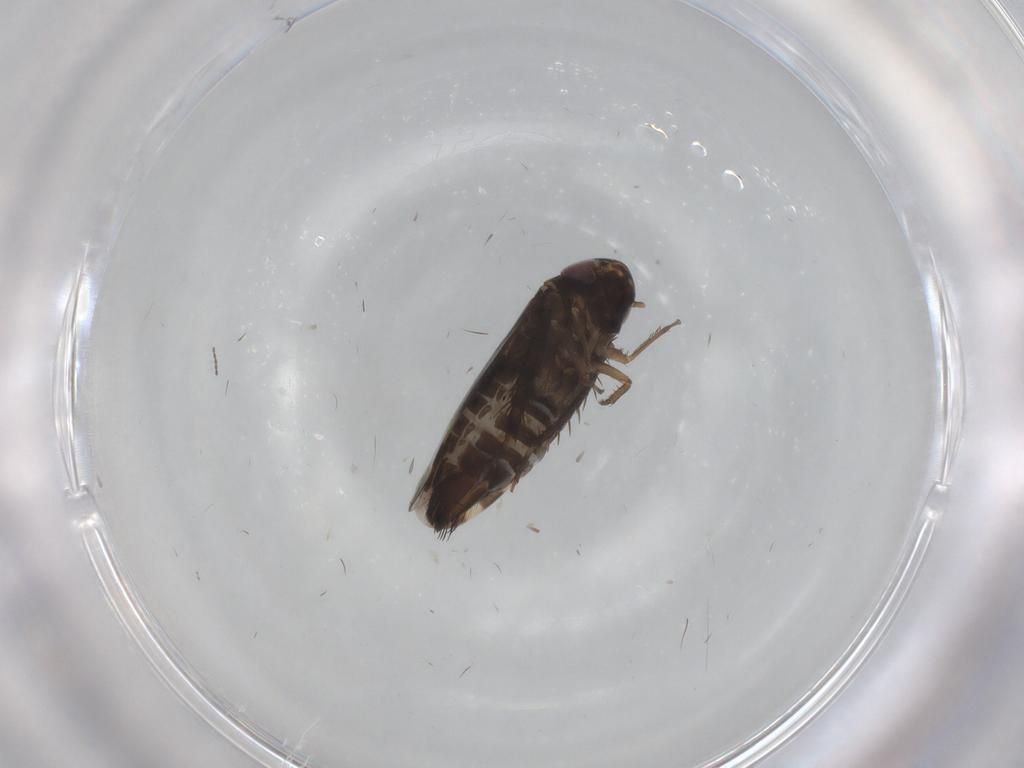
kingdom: Animalia
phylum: Arthropoda
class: Insecta
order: Hemiptera
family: Cicadellidae
